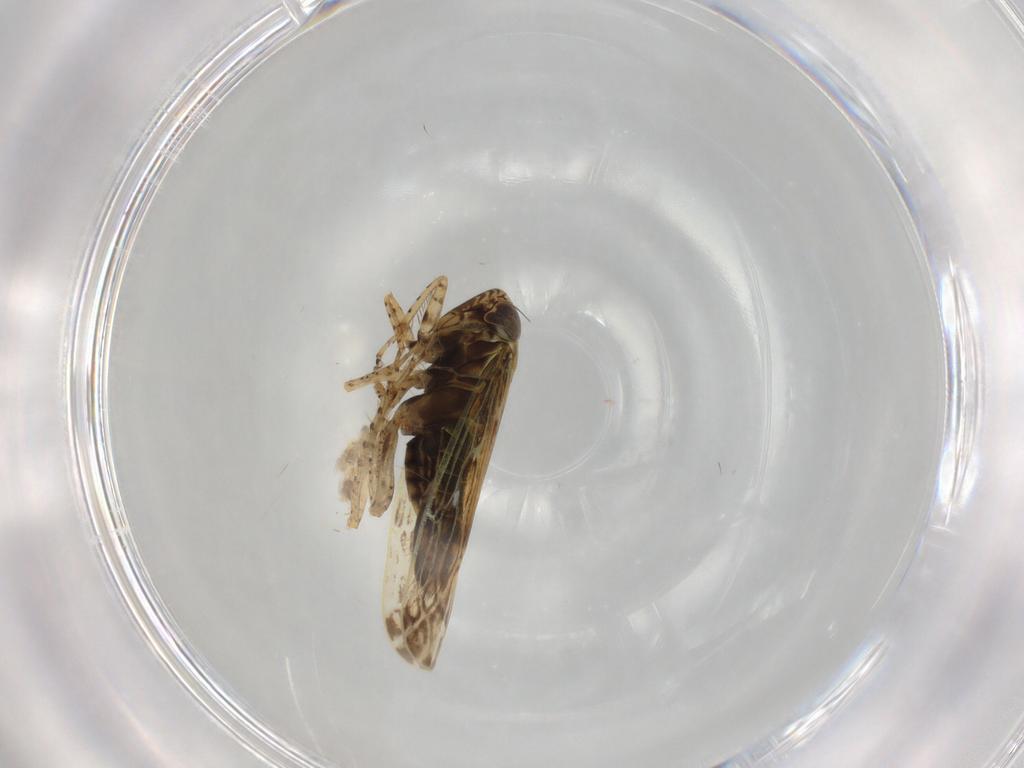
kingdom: Animalia
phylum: Arthropoda
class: Insecta
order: Hemiptera
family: Cicadellidae
